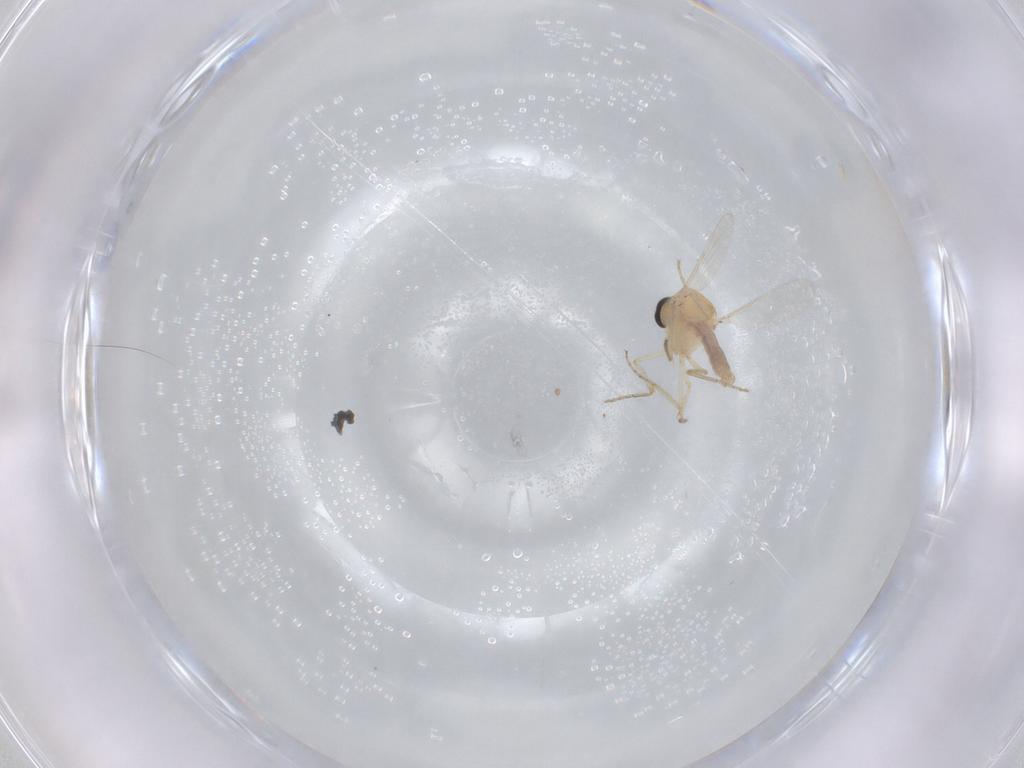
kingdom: Animalia
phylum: Arthropoda
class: Insecta
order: Diptera
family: Ceratopogonidae
